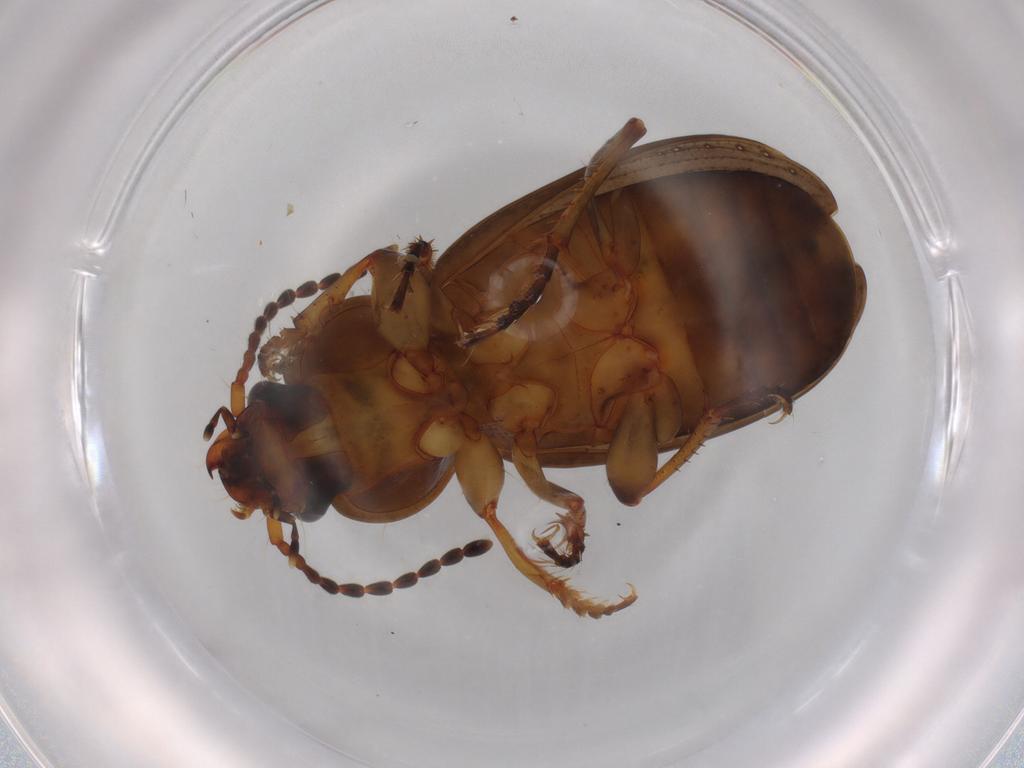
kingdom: Animalia
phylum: Arthropoda
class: Insecta
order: Coleoptera
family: Carabidae
